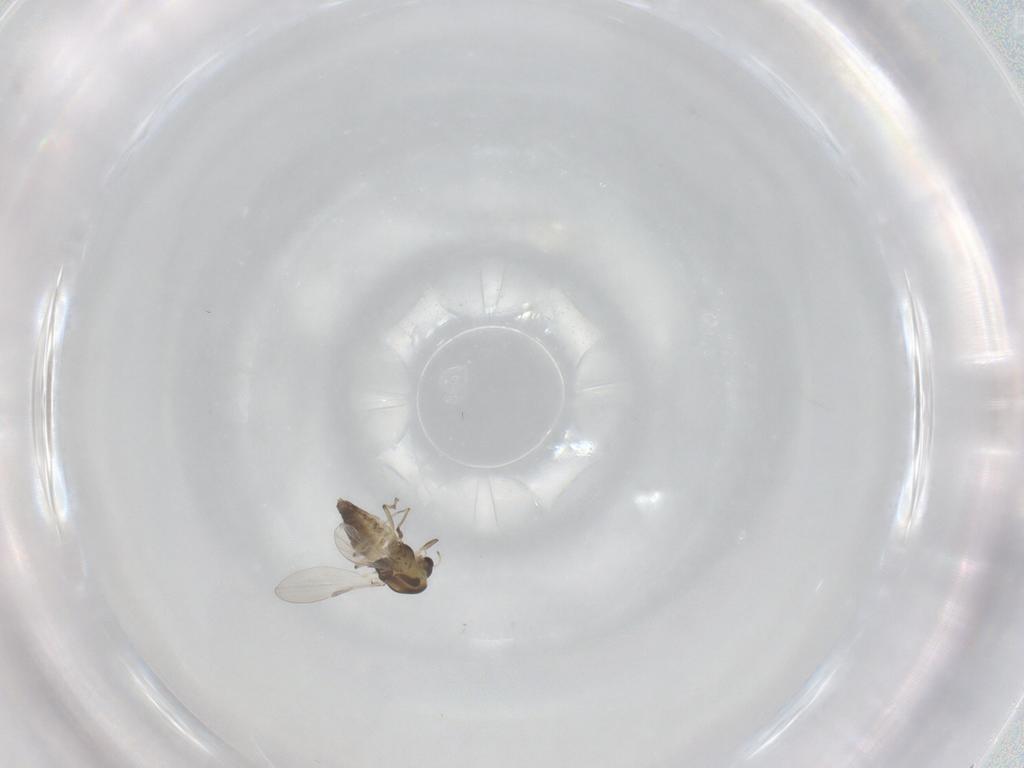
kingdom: Animalia
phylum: Arthropoda
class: Insecta
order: Diptera
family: Chironomidae
